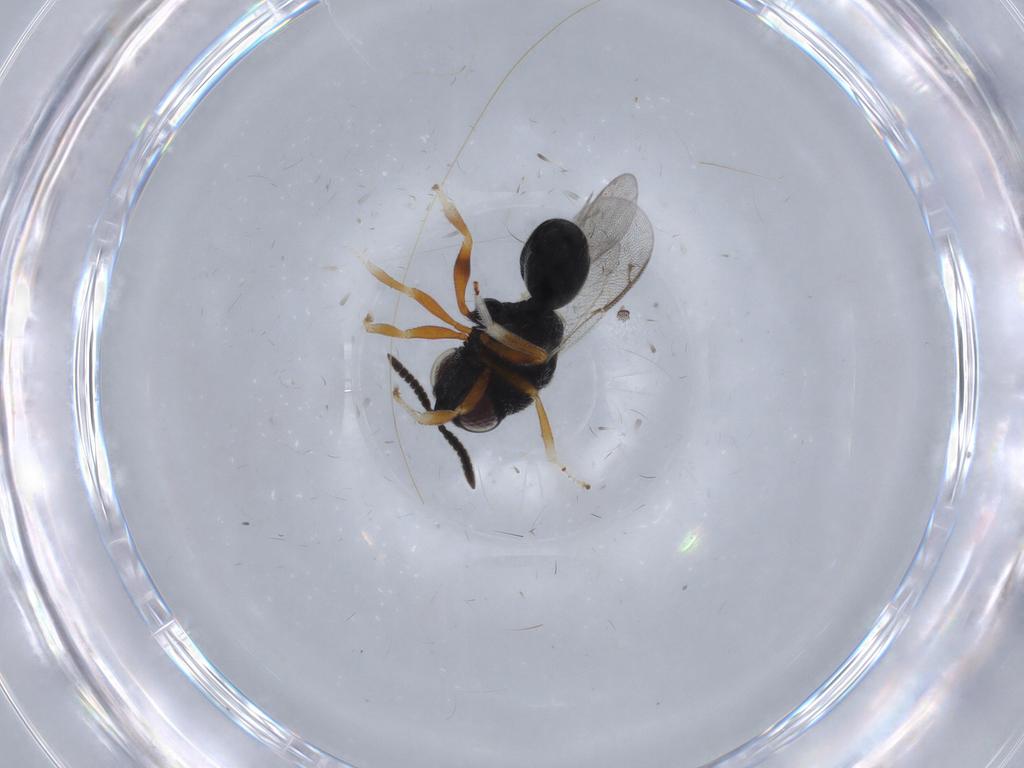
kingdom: Animalia
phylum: Arthropoda
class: Insecta
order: Hymenoptera
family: Eurytomidae
